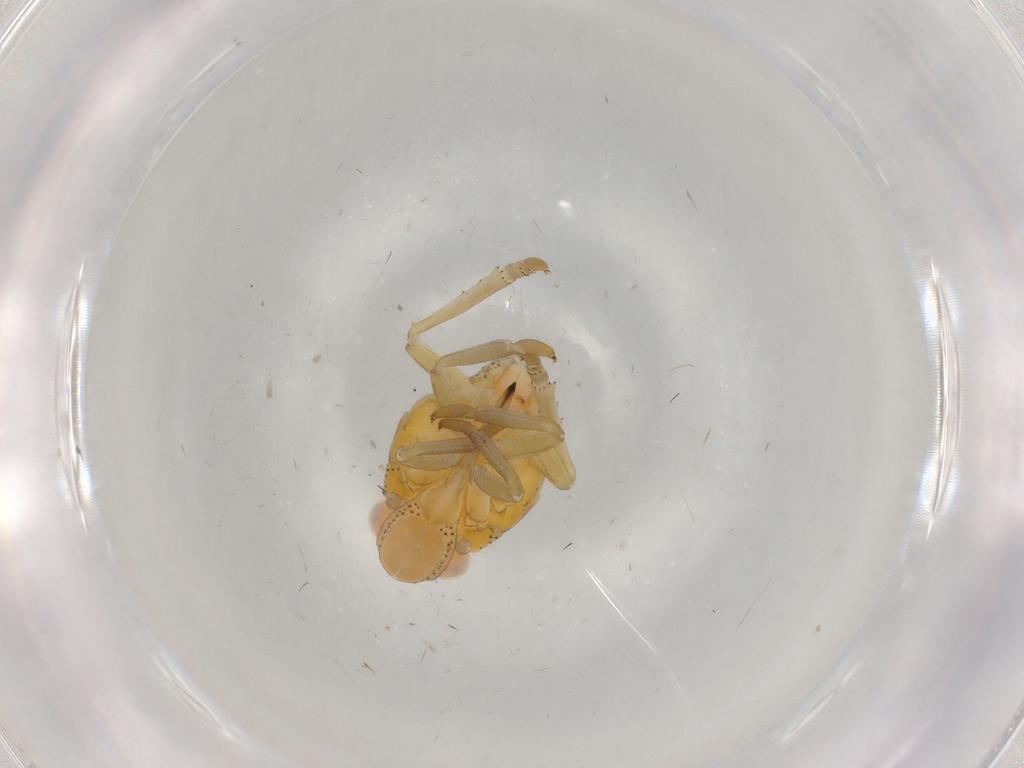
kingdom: Animalia
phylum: Arthropoda
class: Insecta
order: Hemiptera
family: Tropiduchidae
